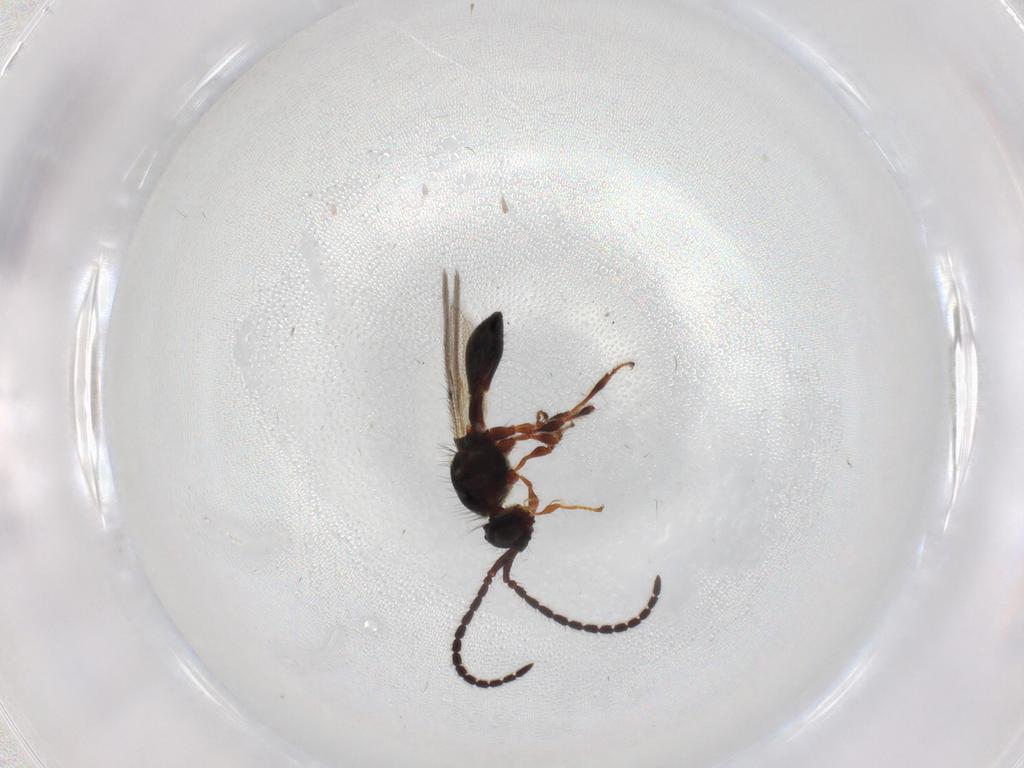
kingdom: Animalia
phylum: Arthropoda
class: Insecta
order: Hymenoptera
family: Diapriidae
